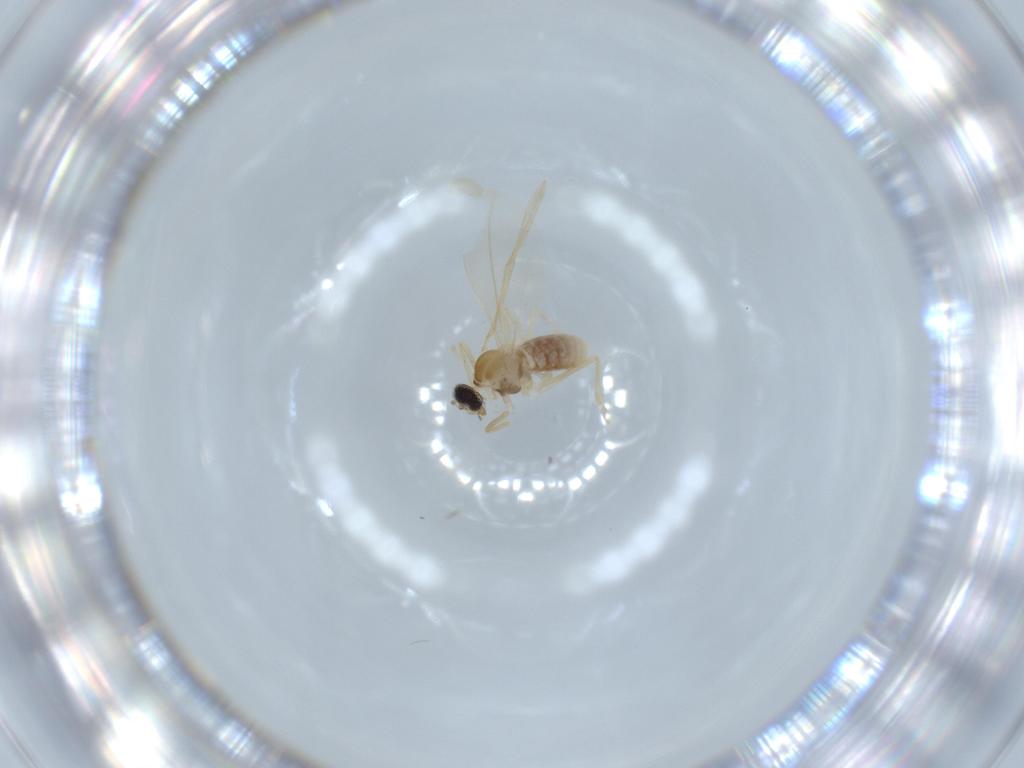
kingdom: Animalia
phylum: Arthropoda
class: Insecta
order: Diptera
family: Cecidomyiidae
